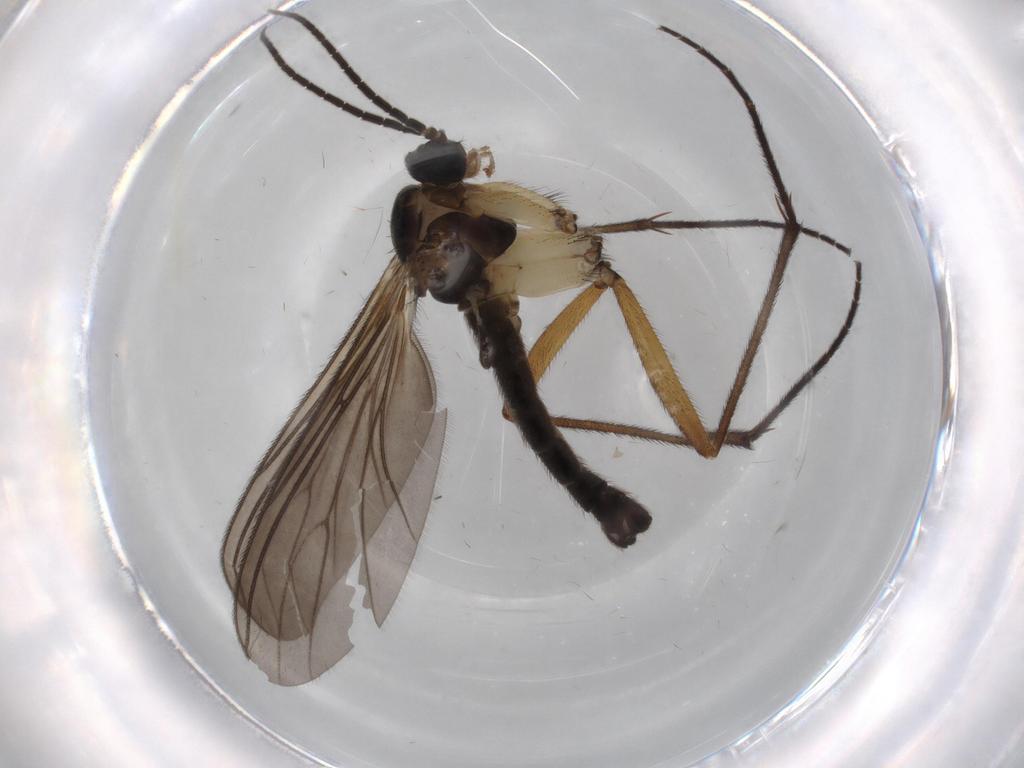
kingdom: Animalia
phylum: Arthropoda
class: Insecta
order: Diptera
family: Sciaridae
